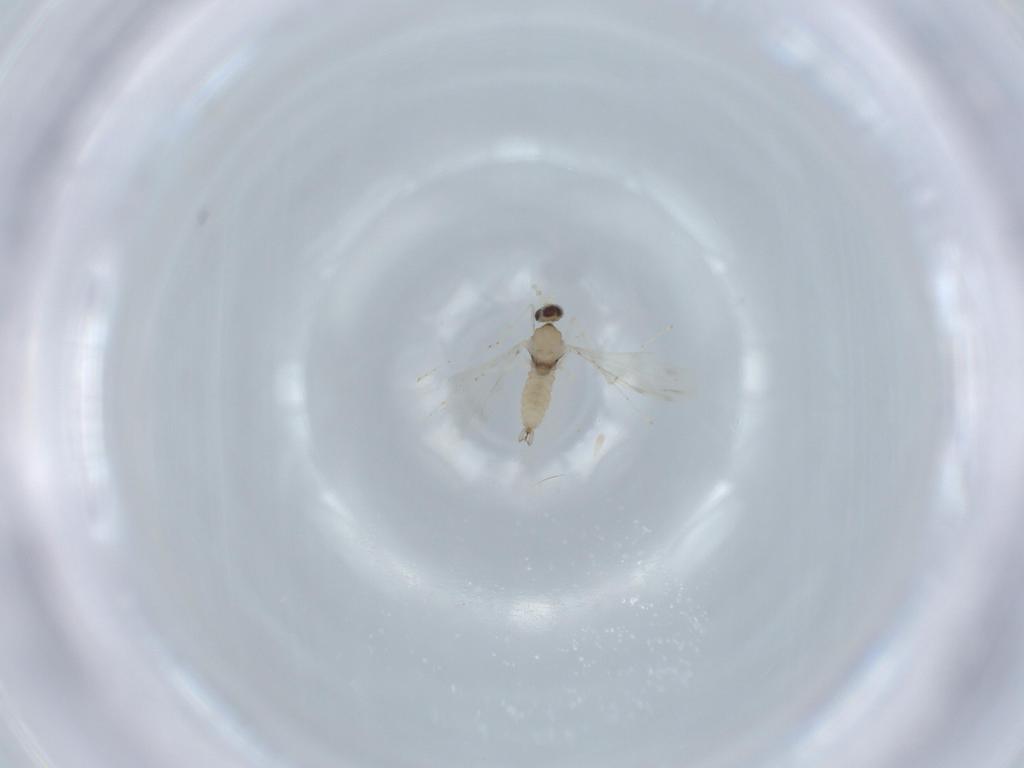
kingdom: Animalia
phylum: Arthropoda
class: Insecta
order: Diptera
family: Cecidomyiidae
